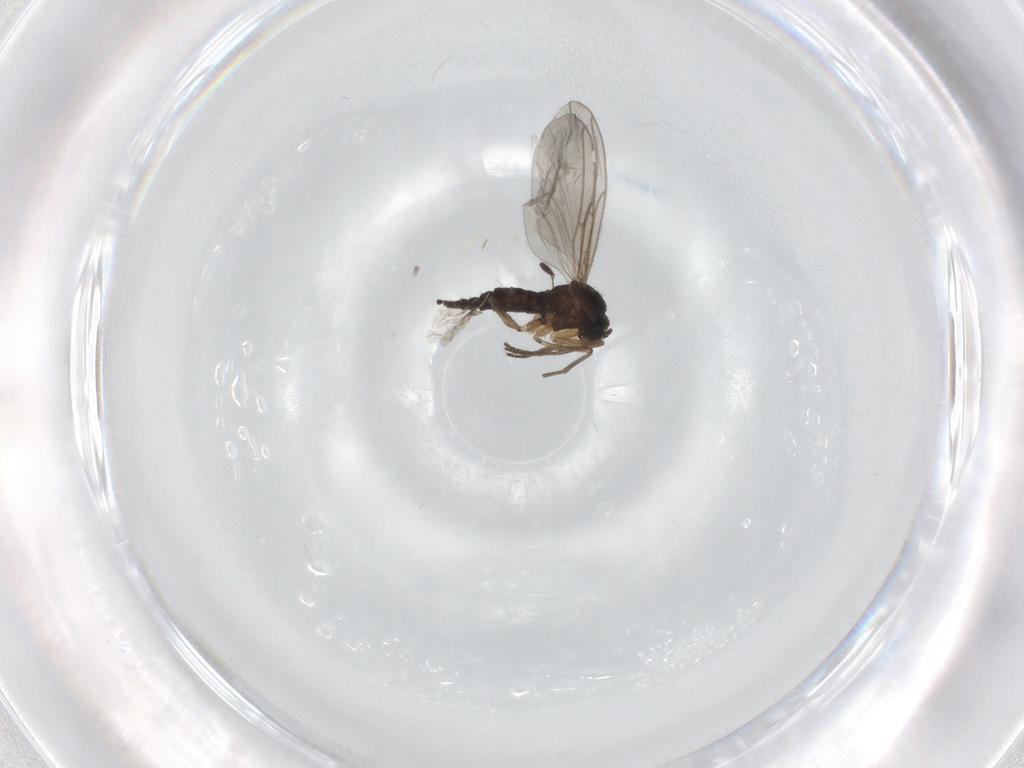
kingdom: Animalia
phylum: Arthropoda
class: Insecta
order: Diptera
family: Sciaridae
